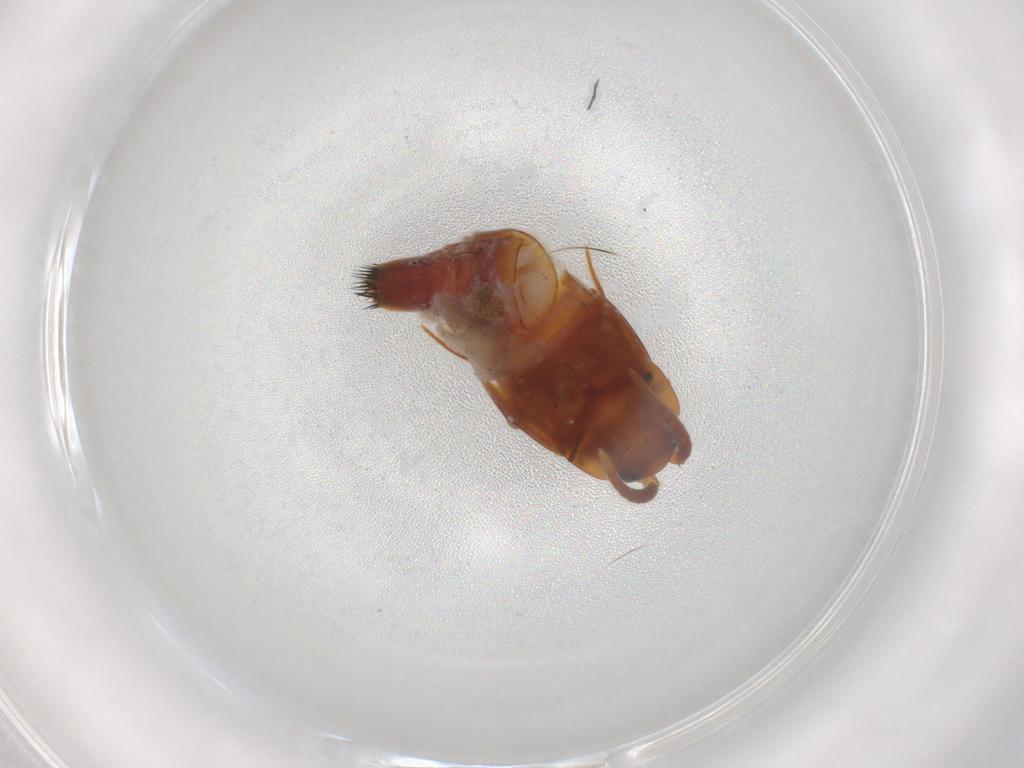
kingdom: Animalia
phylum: Arthropoda
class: Insecta
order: Coleoptera
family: Staphylinidae
